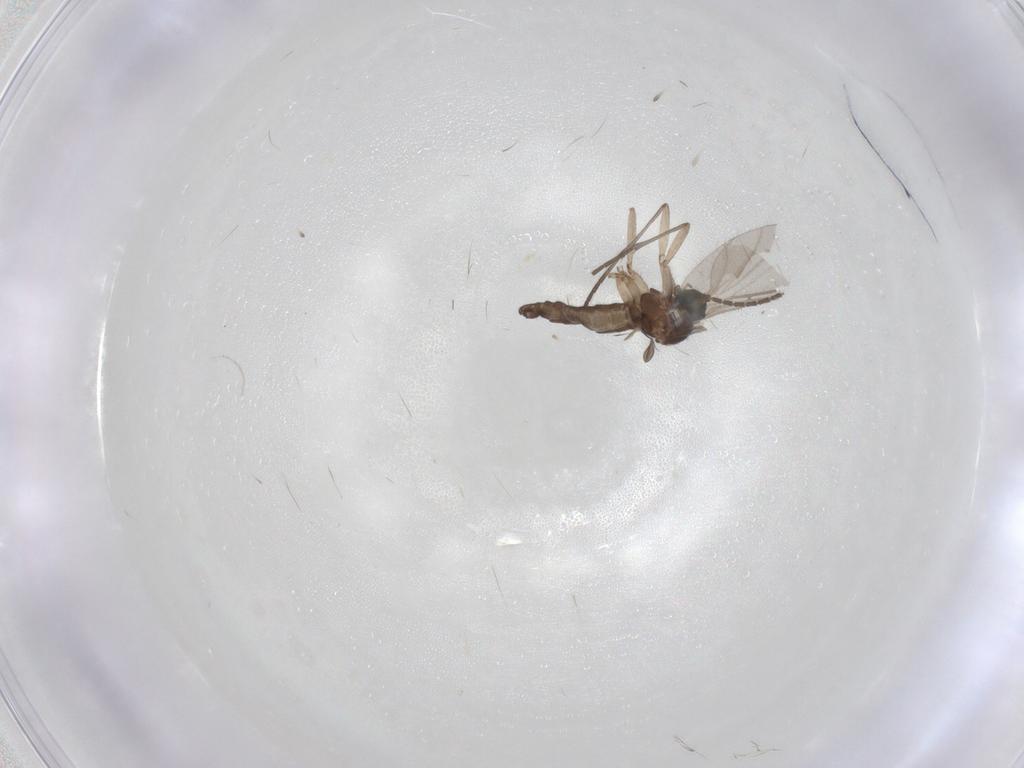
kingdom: Animalia
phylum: Arthropoda
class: Insecta
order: Diptera
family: Sciaridae
